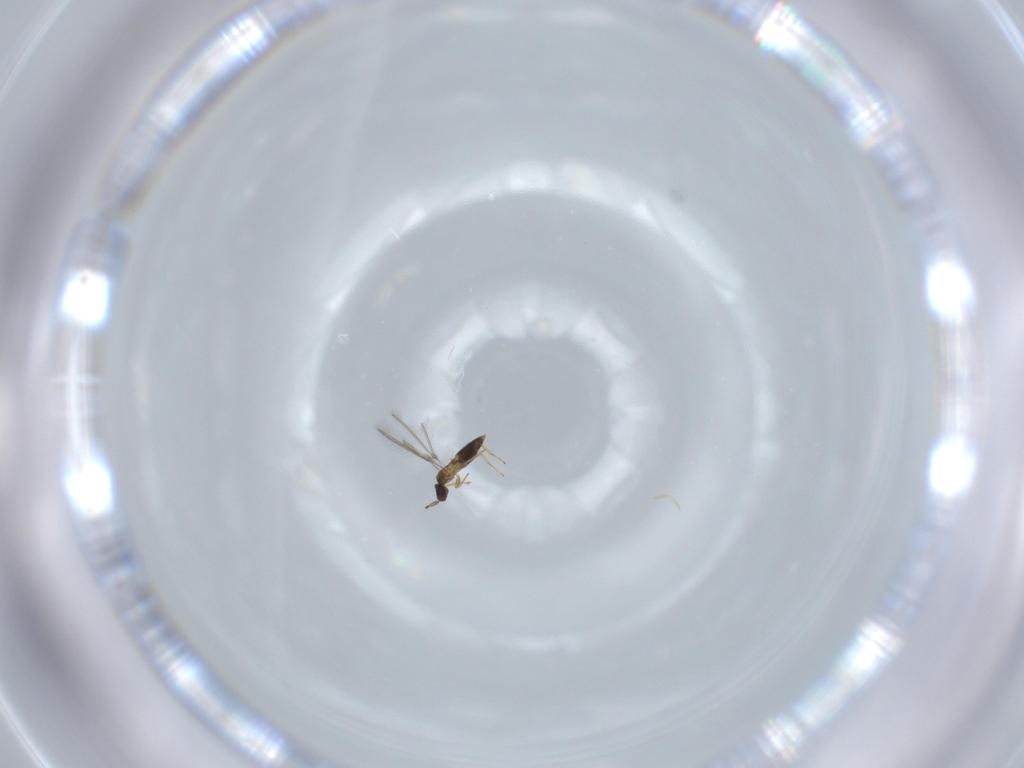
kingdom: Animalia
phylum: Arthropoda
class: Insecta
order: Hymenoptera
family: Mymaridae
